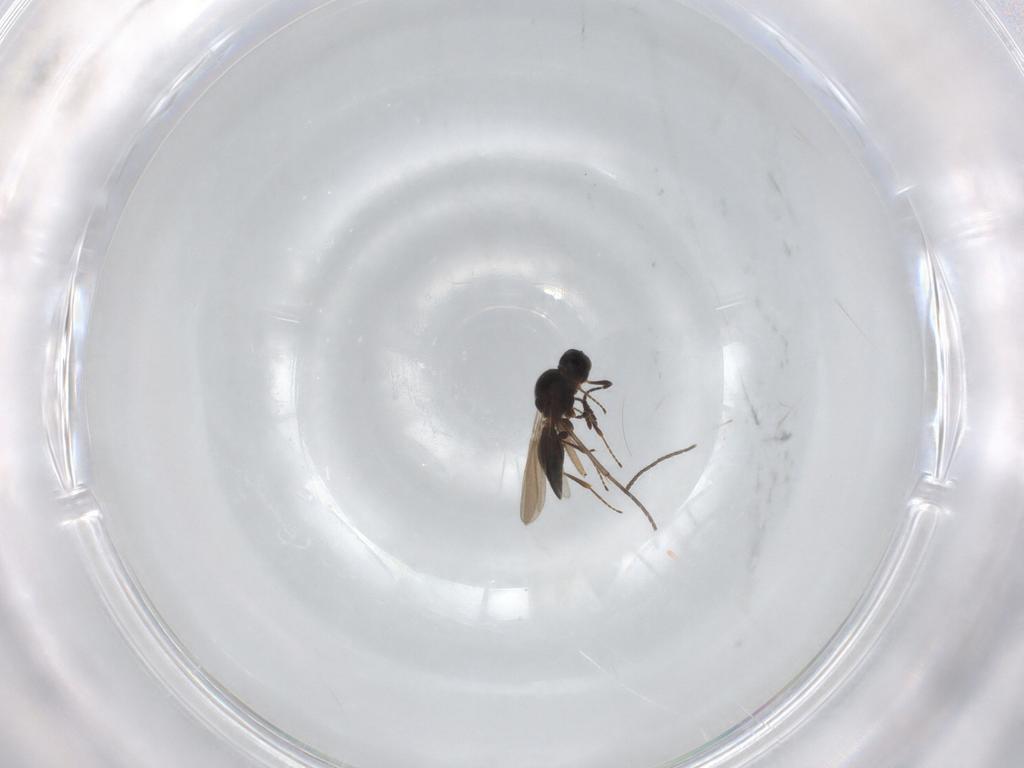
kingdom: Animalia
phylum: Arthropoda
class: Insecta
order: Hymenoptera
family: Platygastridae
